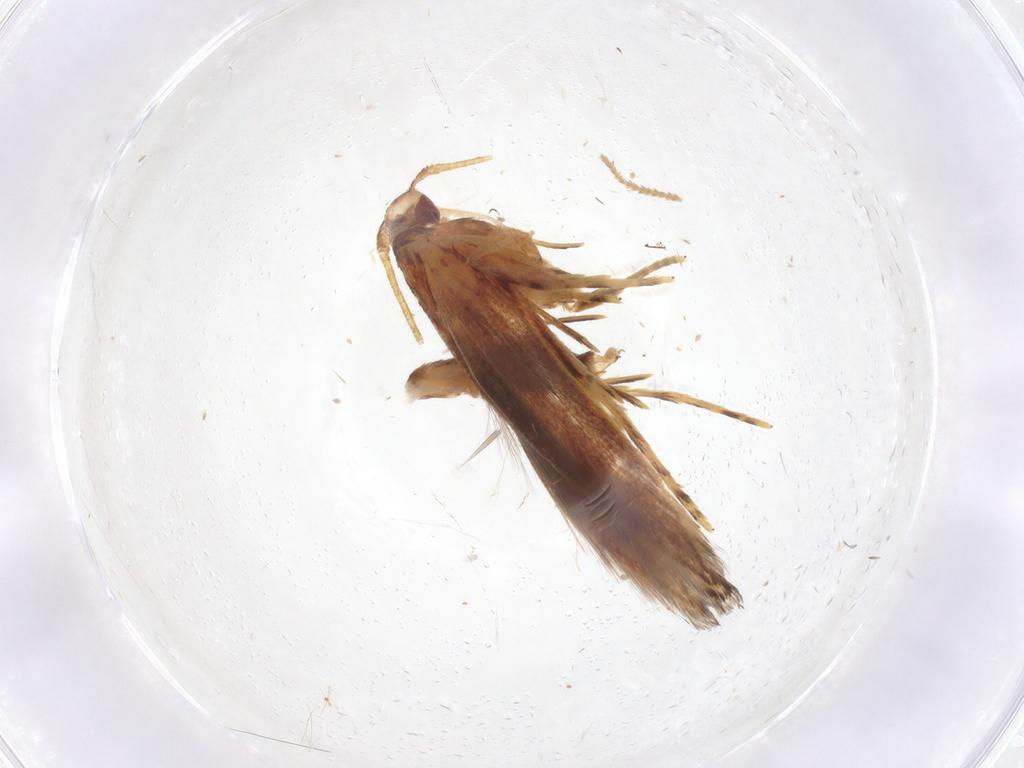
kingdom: Animalia
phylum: Arthropoda
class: Insecta
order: Lepidoptera
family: Cosmopterigidae
